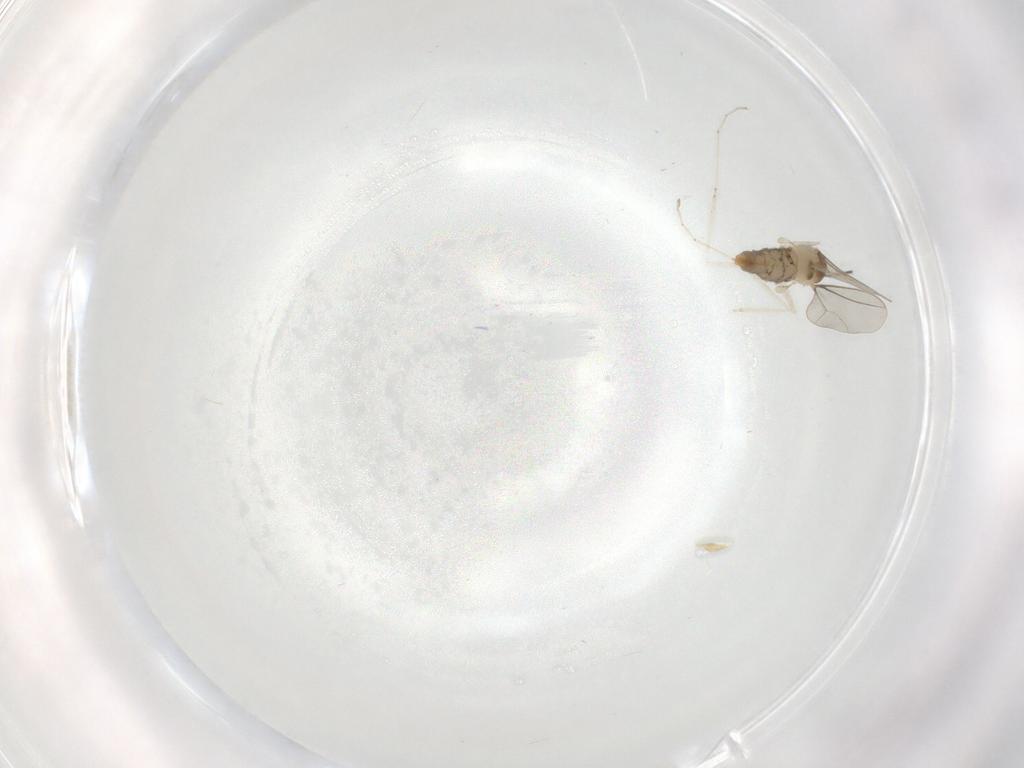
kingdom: Animalia
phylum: Arthropoda
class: Insecta
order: Diptera
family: Cecidomyiidae
